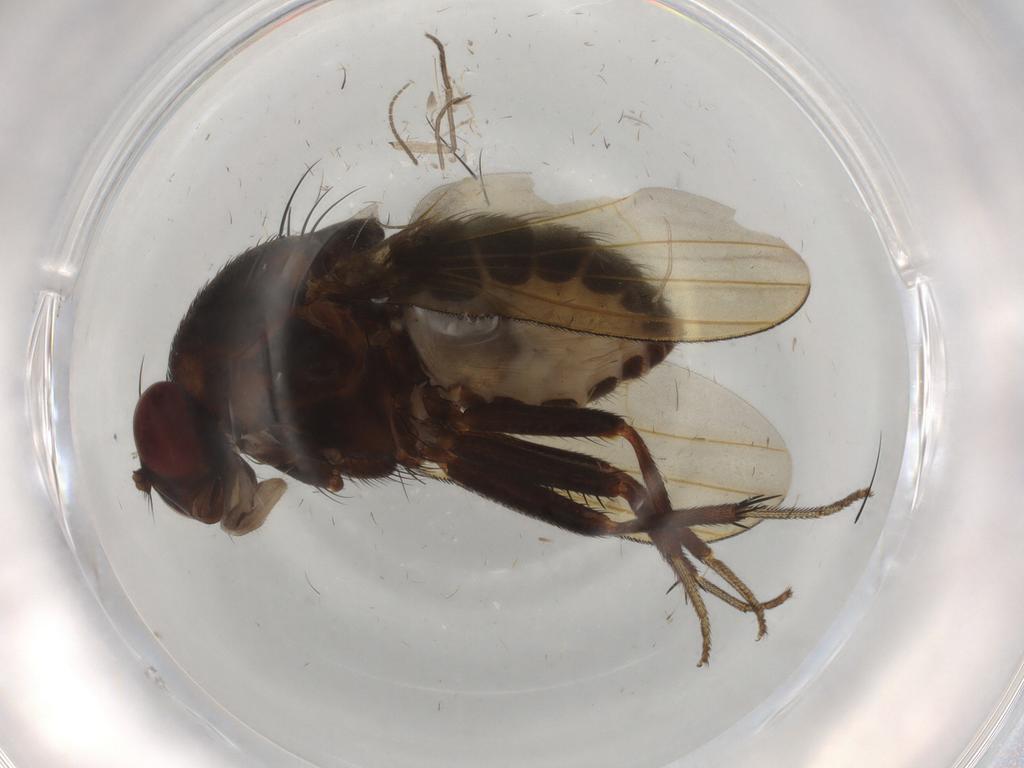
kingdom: Animalia
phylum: Arthropoda
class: Insecta
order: Diptera
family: Sciaridae
